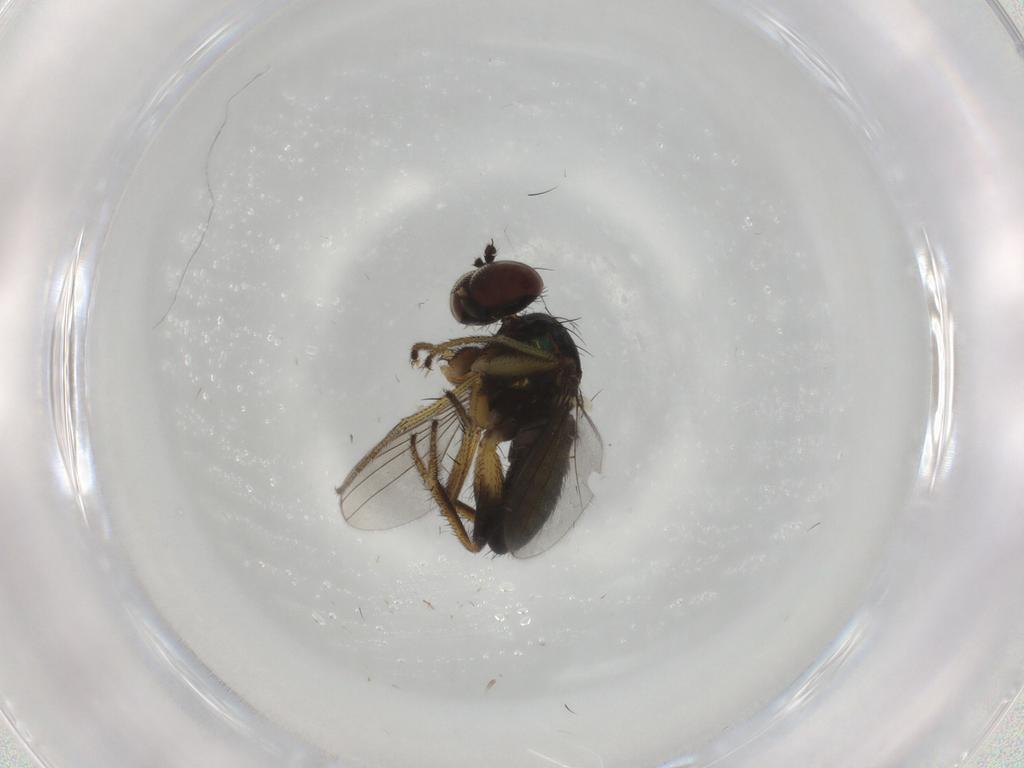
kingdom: Animalia
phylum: Arthropoda
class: Insecta
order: Diptera
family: Dolichopodidae
